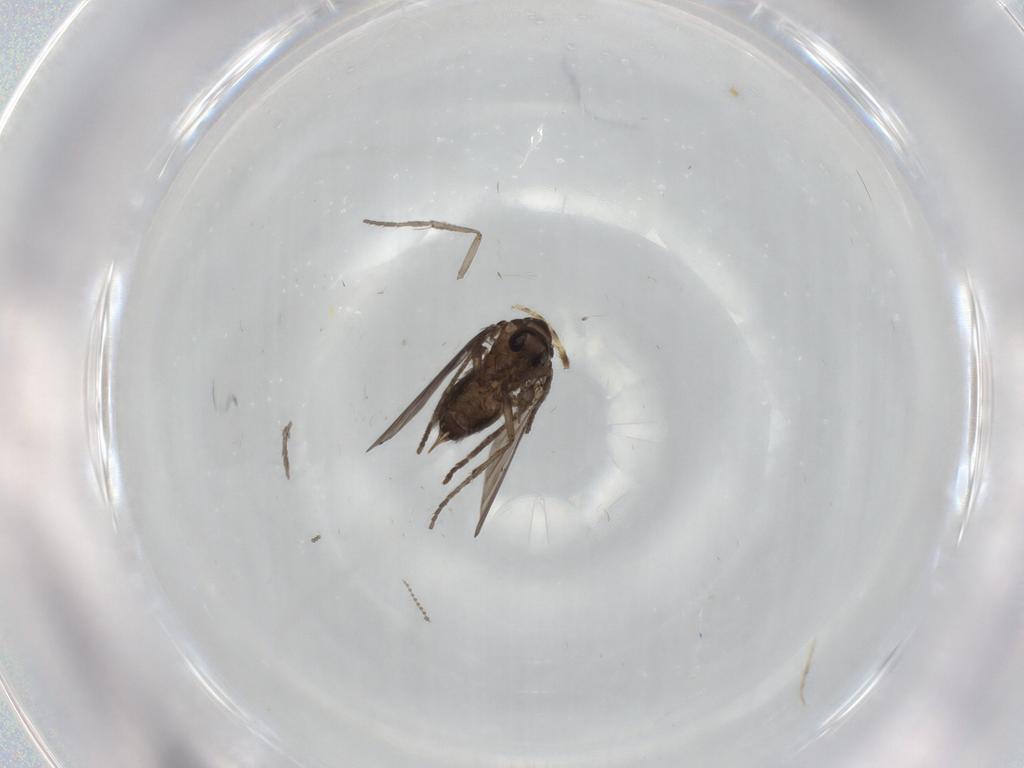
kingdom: Animalia
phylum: Arthropoda
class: Insecta
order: Diptera
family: Psychodidae
